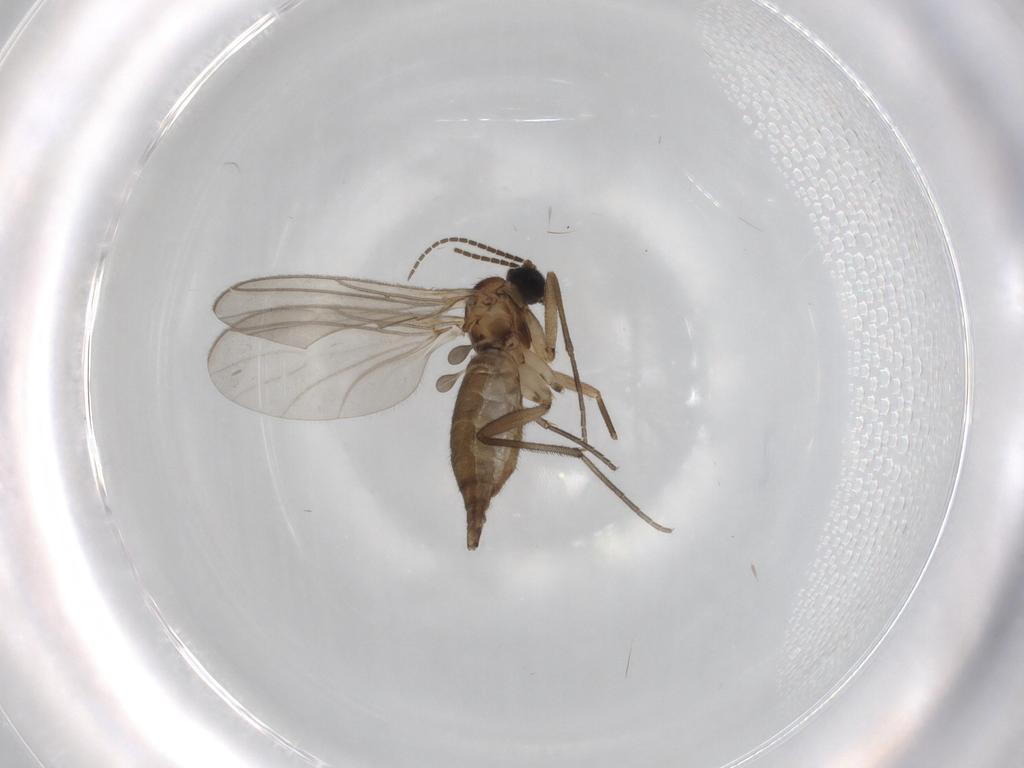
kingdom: Animalia
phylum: Arthropoda
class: Insecta
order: Diptera
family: Sciaridae
